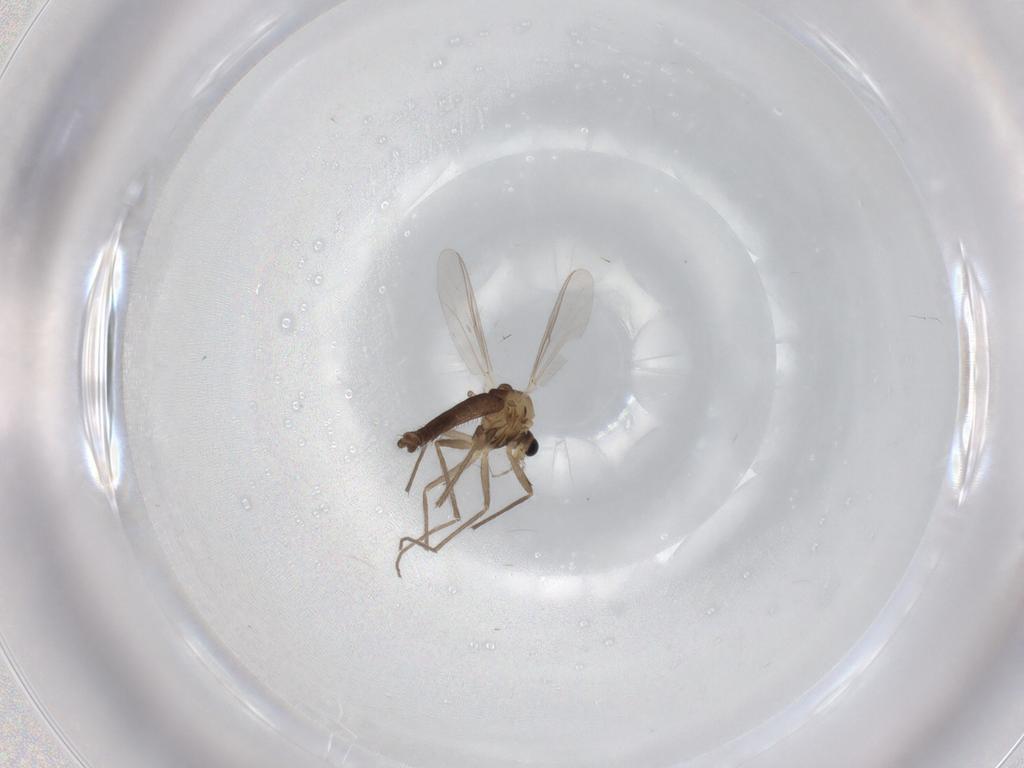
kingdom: Animalia
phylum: Arthropoda
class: Insecta
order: Diptera
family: Chironomidae
